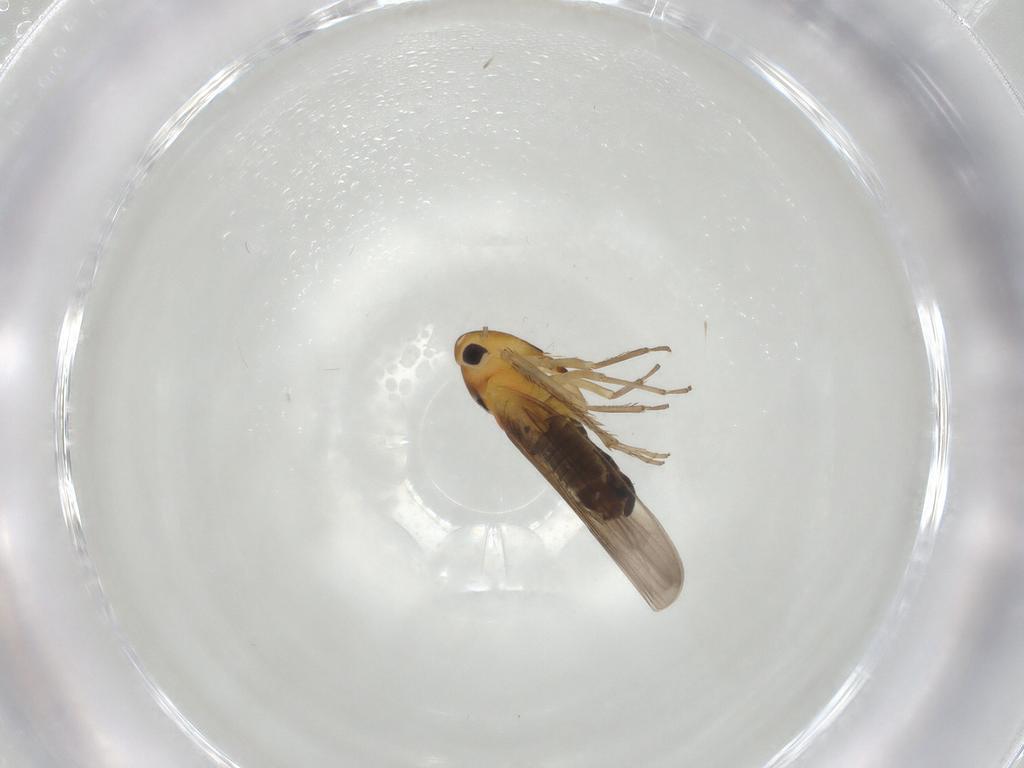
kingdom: Animalia
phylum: Arthropoda
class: Insecta
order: Hemiptera
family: Cicadellidae
